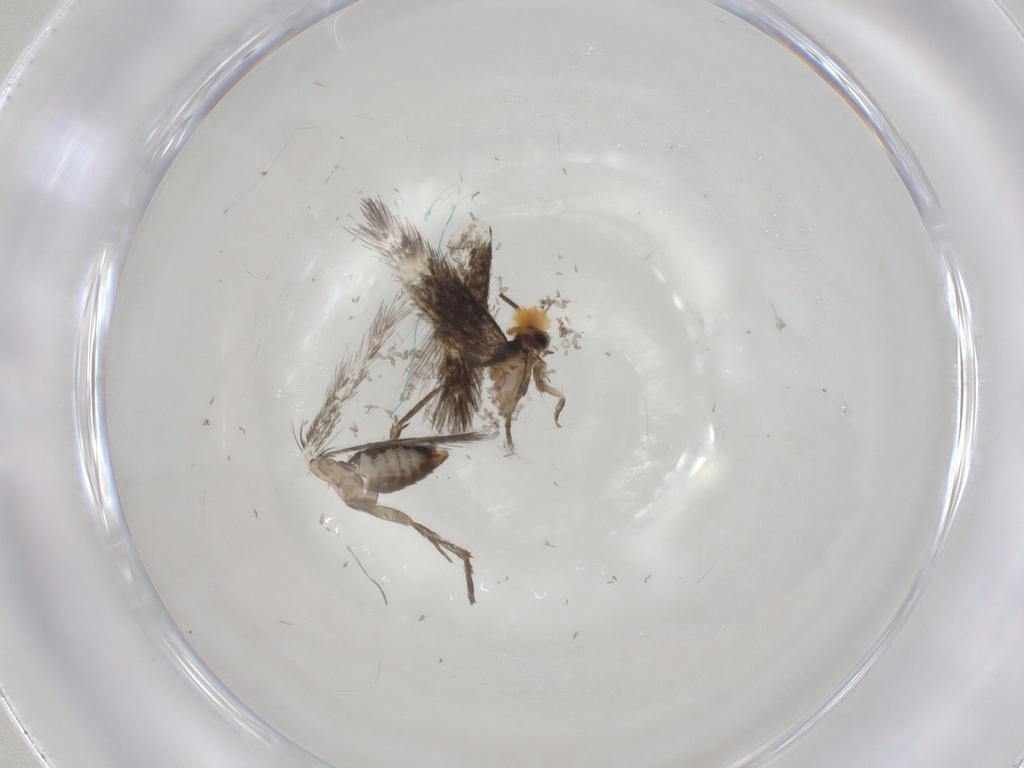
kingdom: Animalia
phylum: Arthropoda
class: Insecta
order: Lepidoptera
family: Nepticulidae
